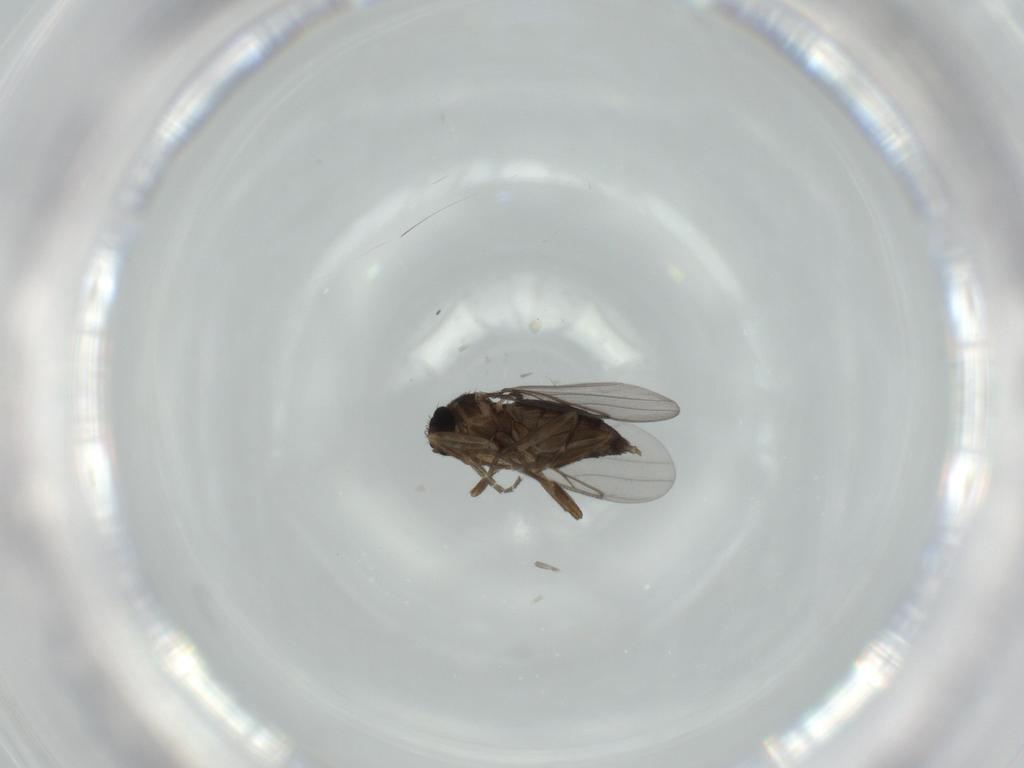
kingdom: Animalia
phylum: Arthropoda
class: Insecta
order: Diptera
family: Phoridae
